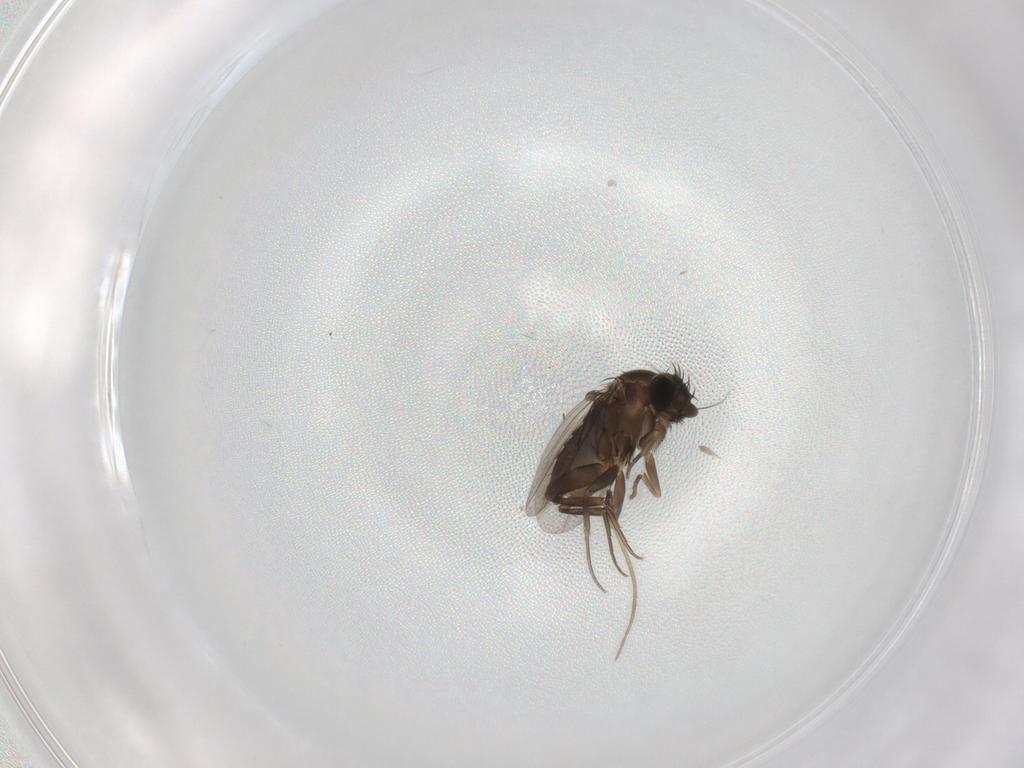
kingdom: Animalia
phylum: Arthropoda
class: Insecta
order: Diptera
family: Phoridae
